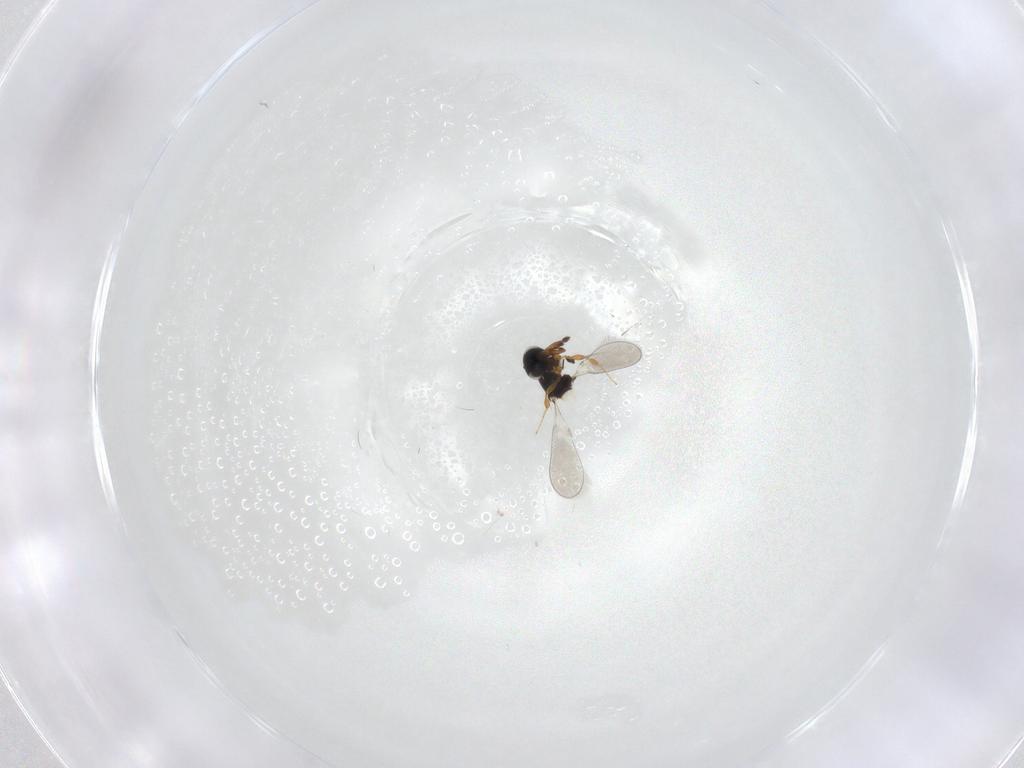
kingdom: Animalia
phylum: Arthropoda
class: Insecta
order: Hymenoptera
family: Platygastridae
